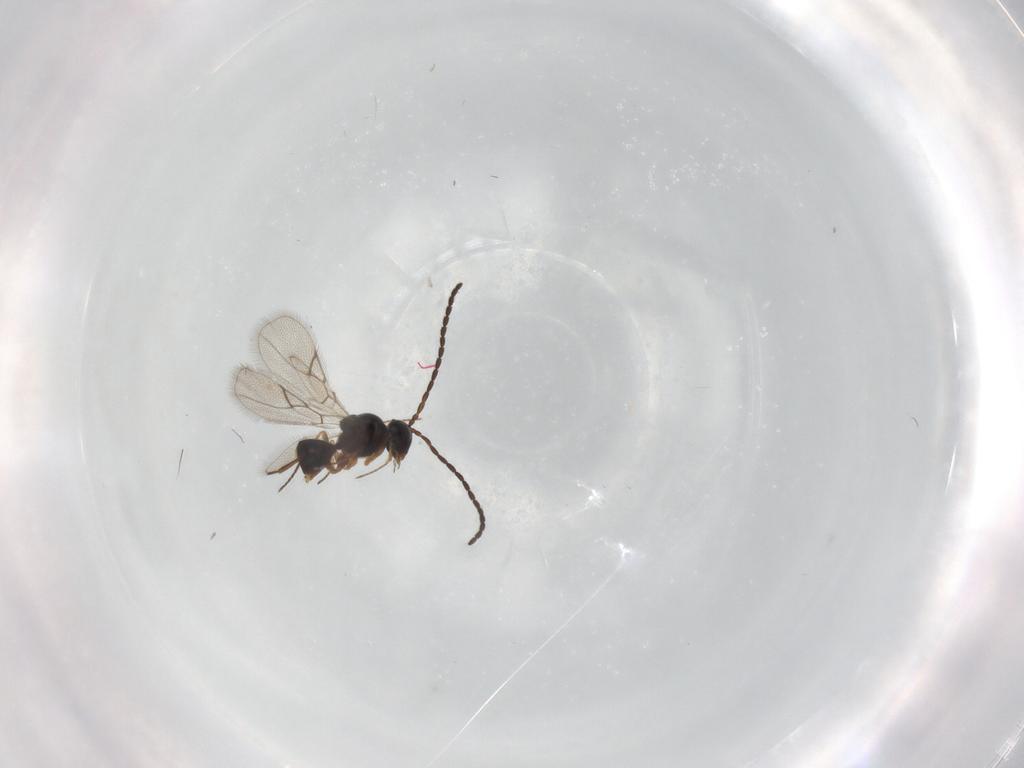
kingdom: Animalia
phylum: Arthropoda
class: Insecta
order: Hymenoptera
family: Figitidae
